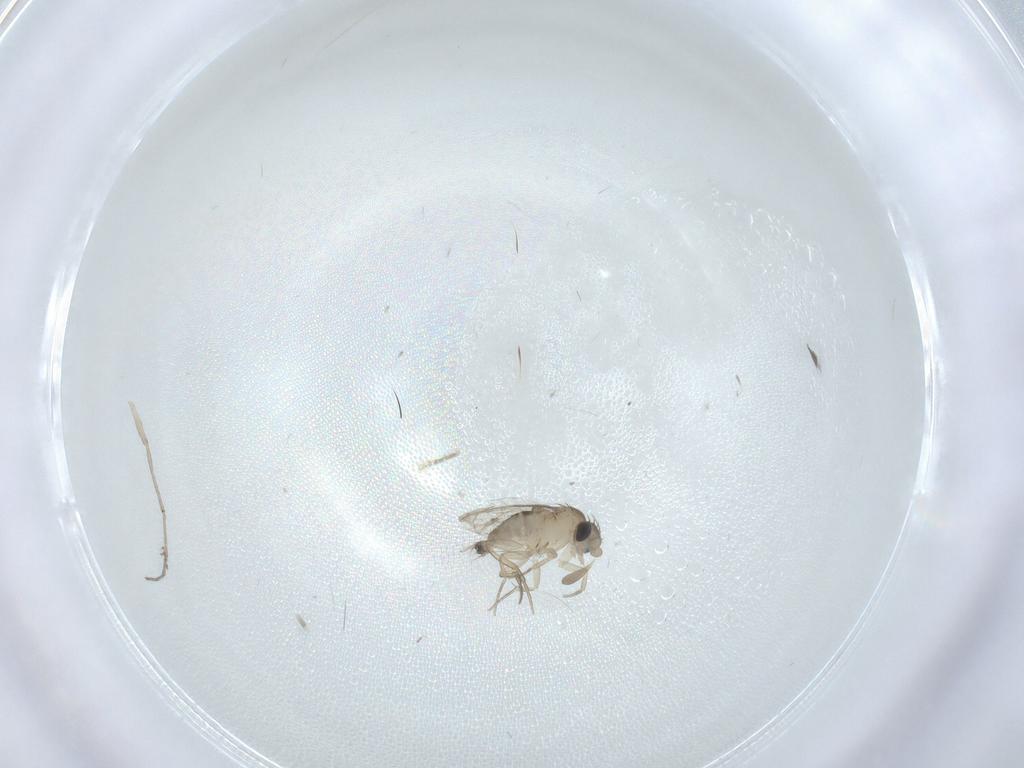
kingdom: Animalia
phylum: Arthropoda
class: Insecta
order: Diptera
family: Phoridae
